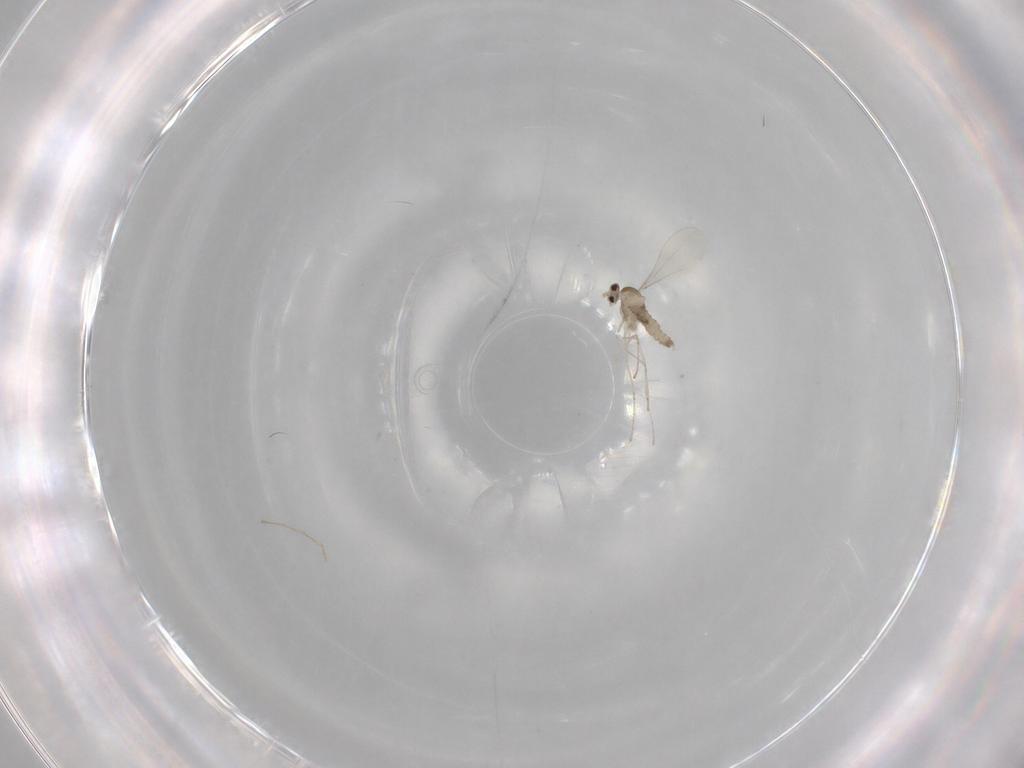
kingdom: Animalia
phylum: Arthropoda
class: Insecta
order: Diptera
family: Cecidomyiidae
